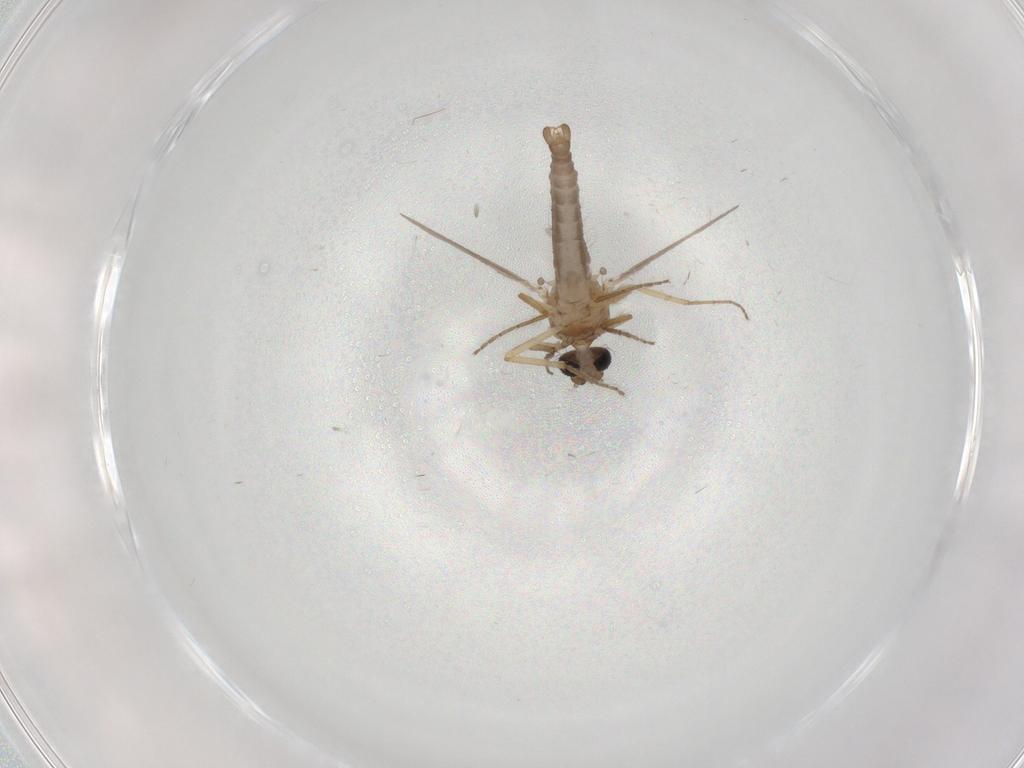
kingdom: Animalia
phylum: Arthropoda
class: Insecta
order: Diptera
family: Ceratopogonidae
